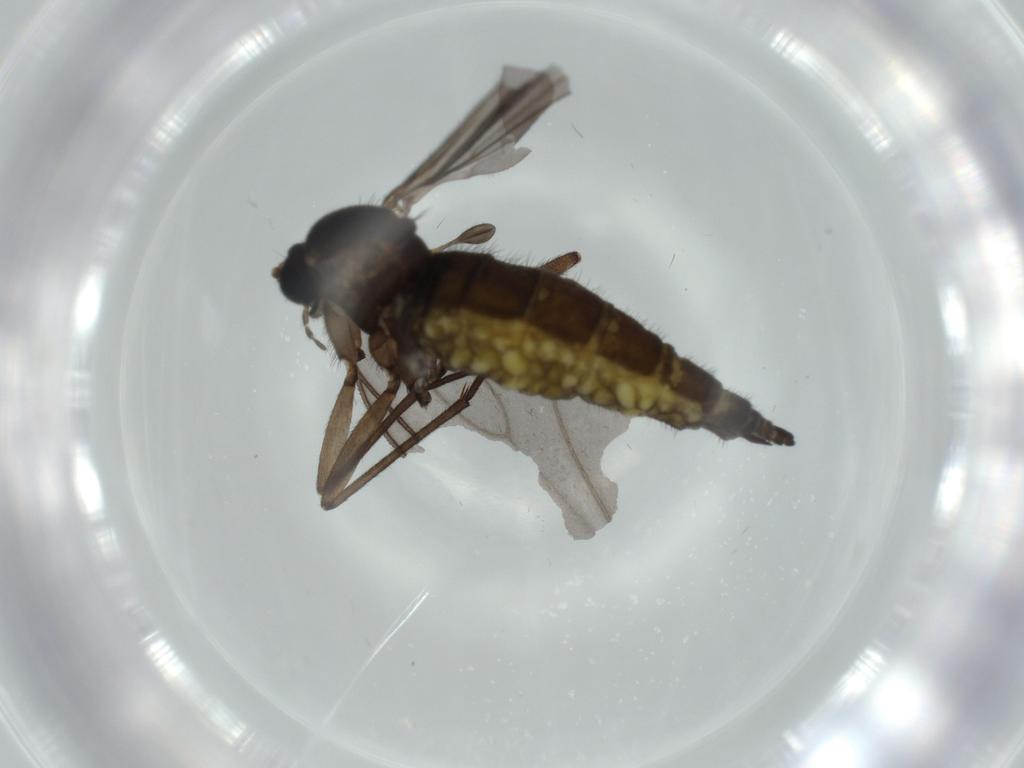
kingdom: Animalia
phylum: Arthropoda
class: Insecta
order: Diptera
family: Sciaridae
